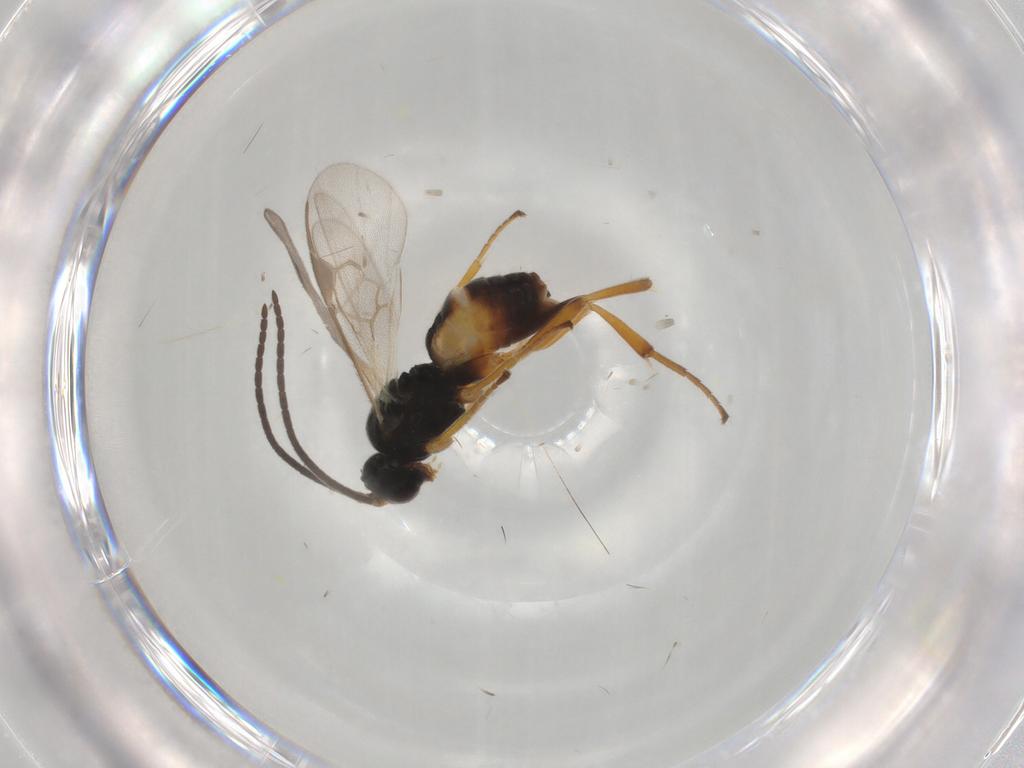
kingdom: Animalia
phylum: Arthropoda
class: Insecta
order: Hymenoptera
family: Braconidae
